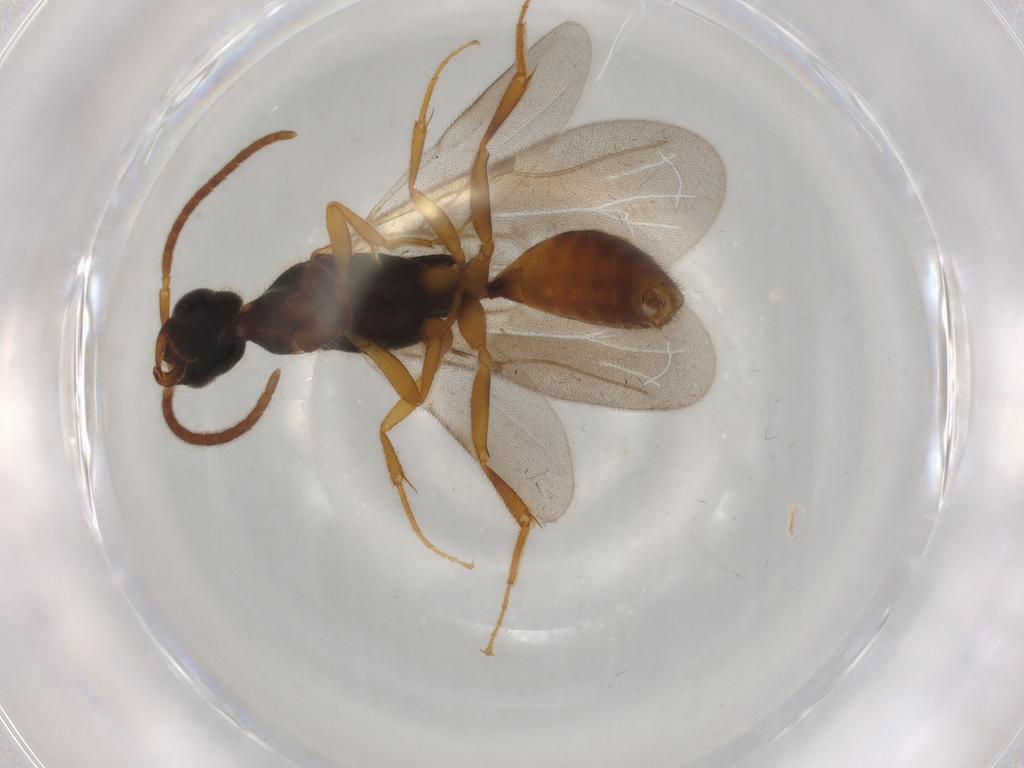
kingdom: Animalia
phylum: Arthropoda
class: Insecta
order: Hymenoptera
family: Bethylidae
